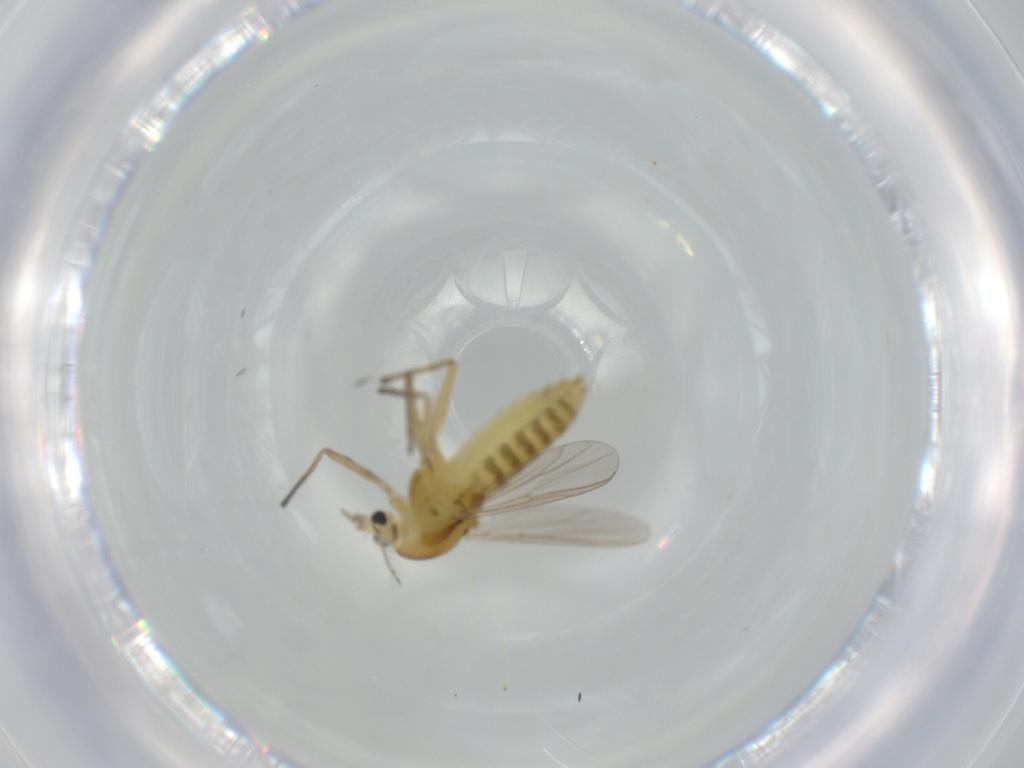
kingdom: Animalia
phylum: Arthropoda
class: Insecta
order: Diptera
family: Chironomidae
